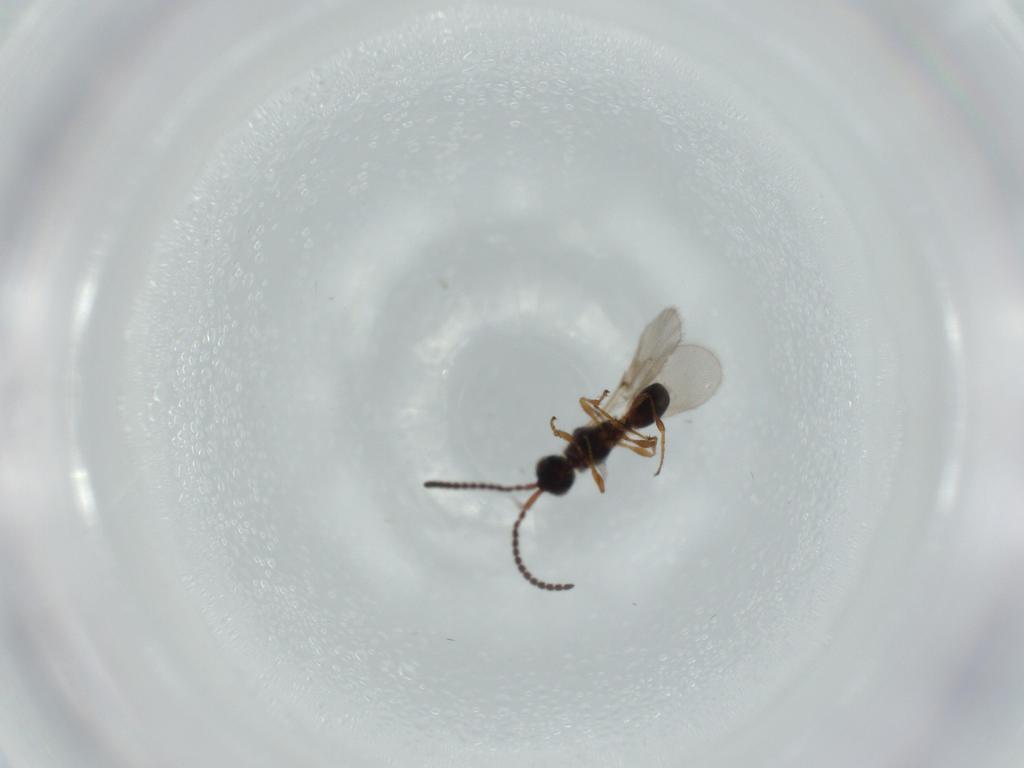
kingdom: Animalia
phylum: Arthropoda
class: Insecta
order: Hymenoptera
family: Diapriidae
